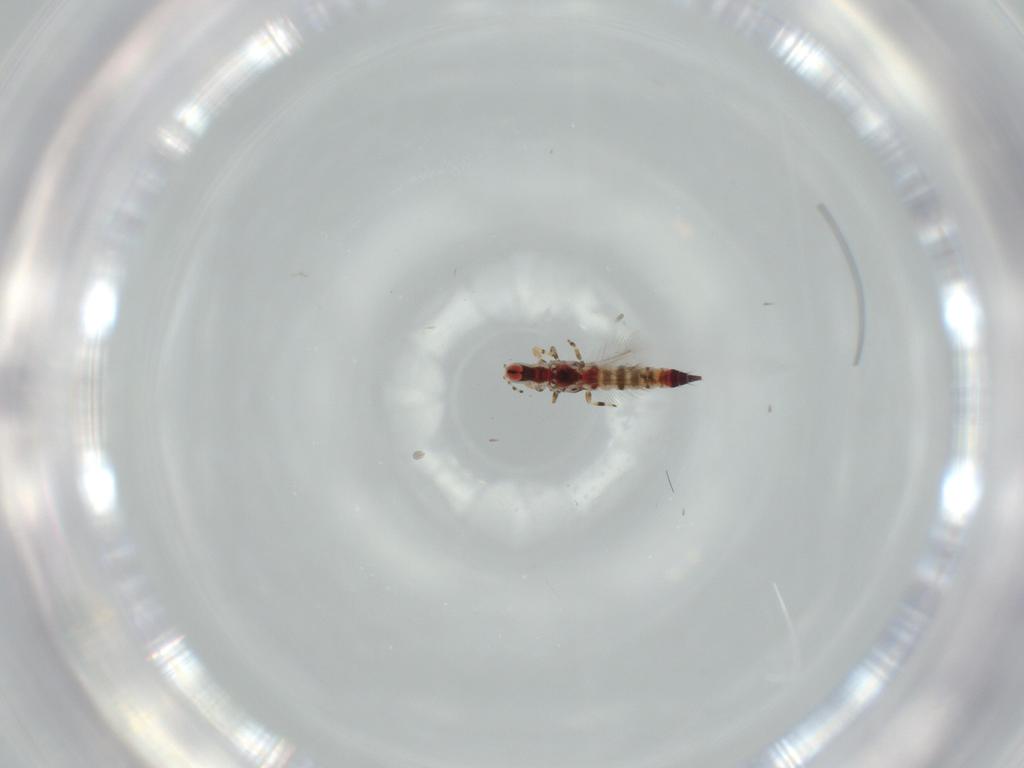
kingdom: Animalia
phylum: Arthropoda
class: Insecta
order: Thysanoptera
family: Phlaeothripidae
